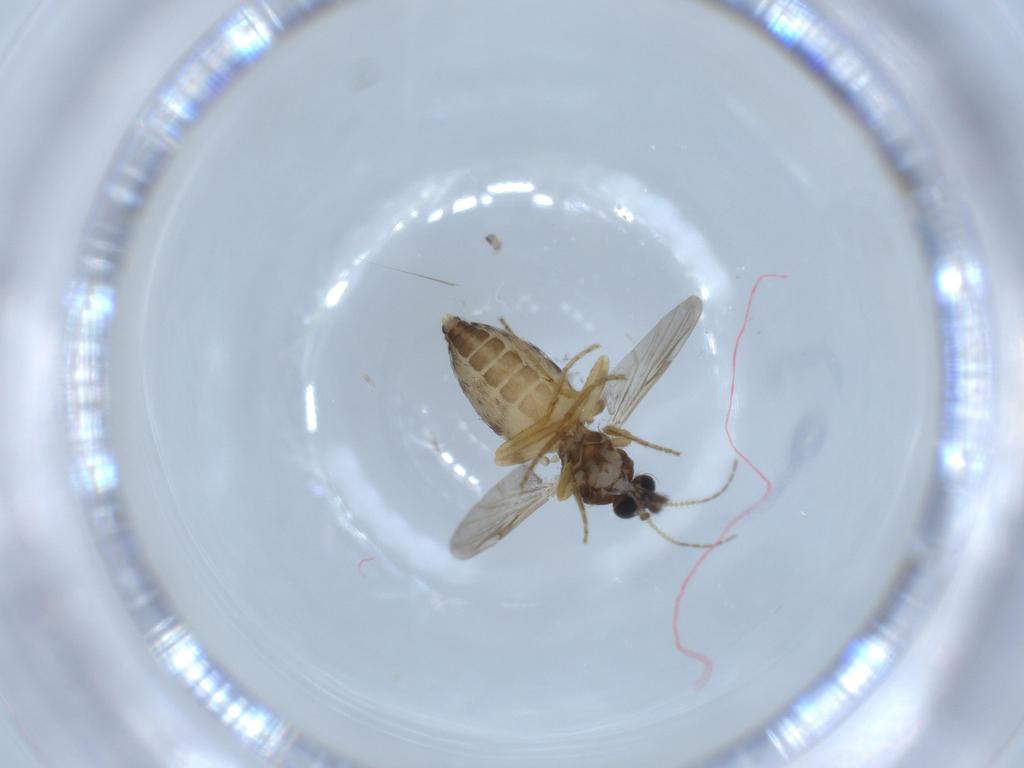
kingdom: Animalia
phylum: Arthropoda
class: Insecta
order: Diptera
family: Ceratopogonidae
